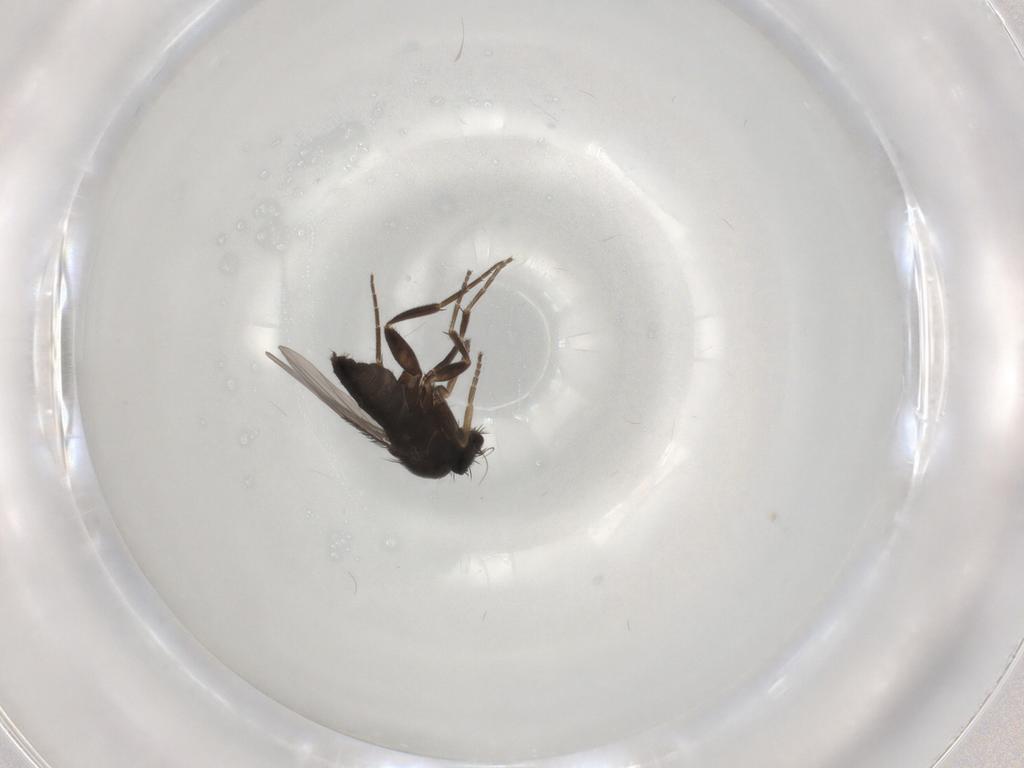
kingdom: Animalia
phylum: Arthropoda
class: Insecta
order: Diptera
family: Phoridae
